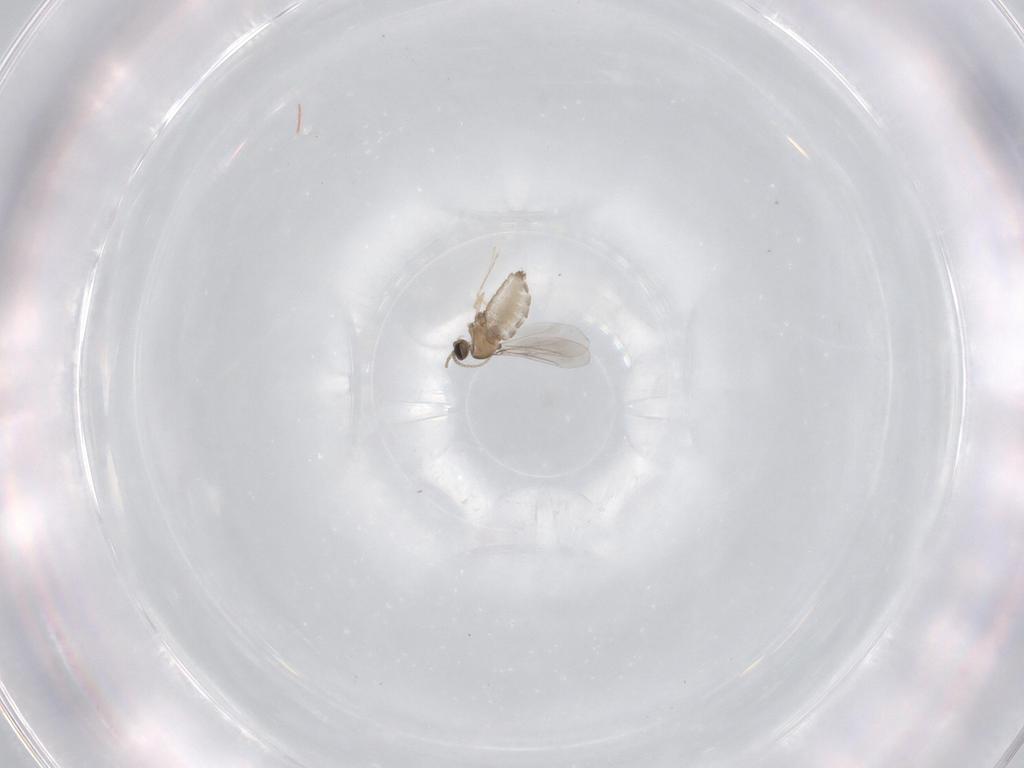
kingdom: Animalia
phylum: Arthropoda
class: Insecta
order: Diptera
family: Cecidomyiidae
